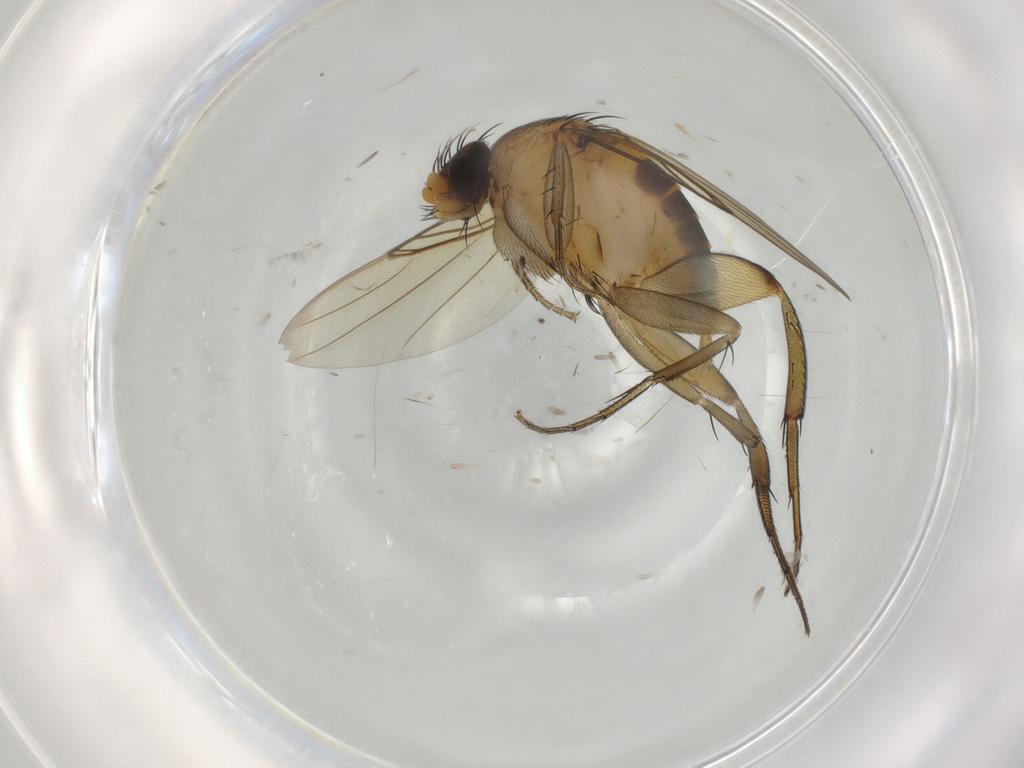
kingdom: Animalia
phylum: Arthropoda
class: Insecta
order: Diptera
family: Phoridae
